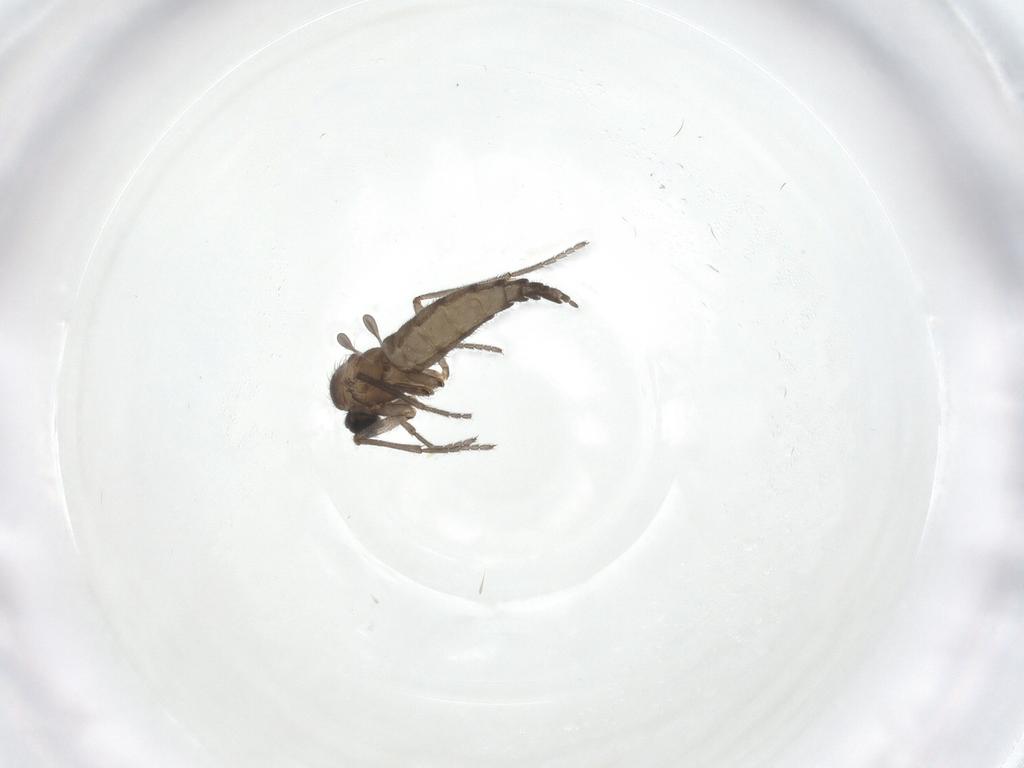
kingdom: Animalia
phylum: Arthropoda
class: Insecta
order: Diptera
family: Sciaridae
